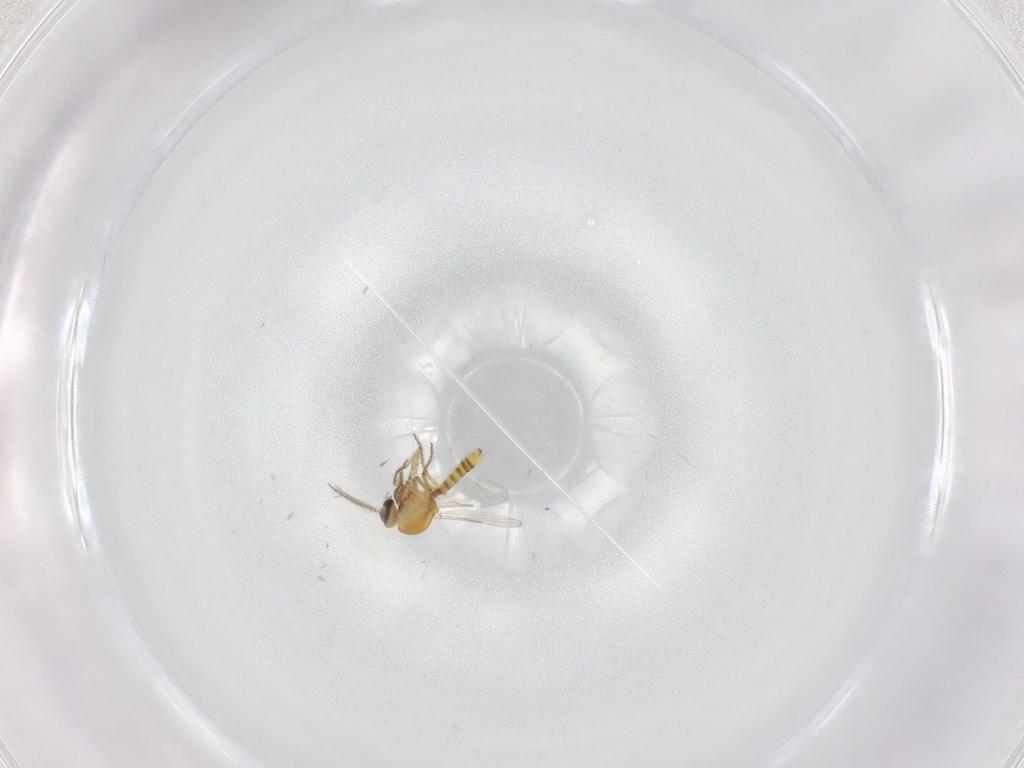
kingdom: Animalia
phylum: Arthropoda
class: Insecta
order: Diptera
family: Ceratopogonidae
